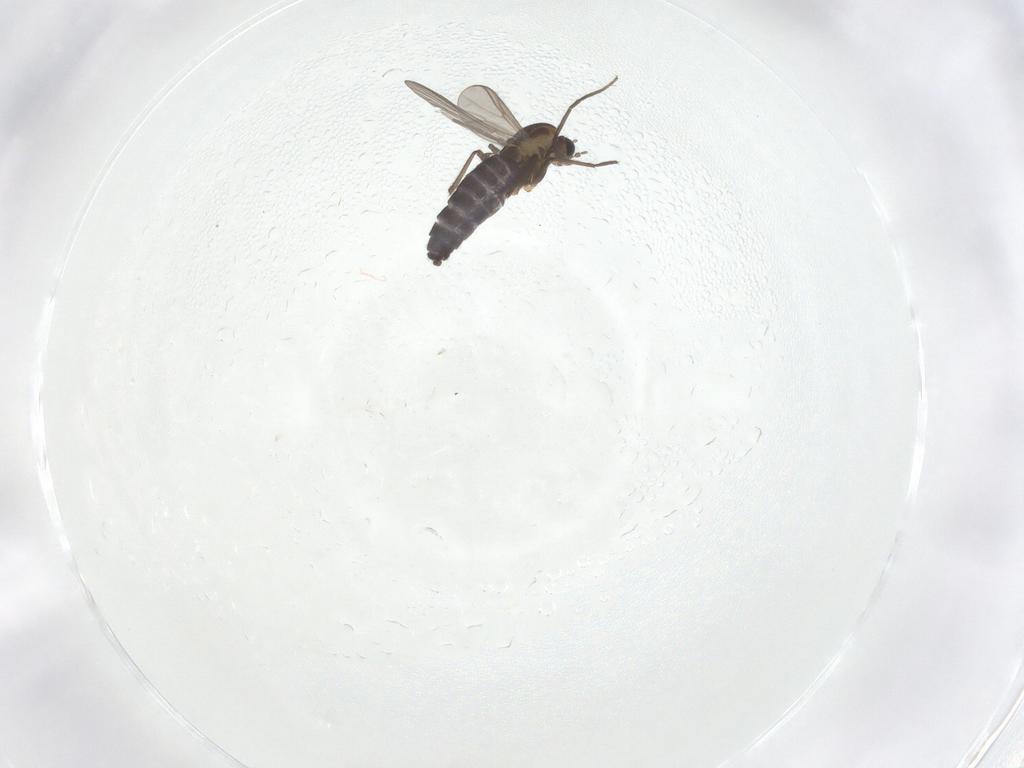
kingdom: Animalia
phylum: Arthropoda
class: Insecta
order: Diptera
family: Chironomidae
